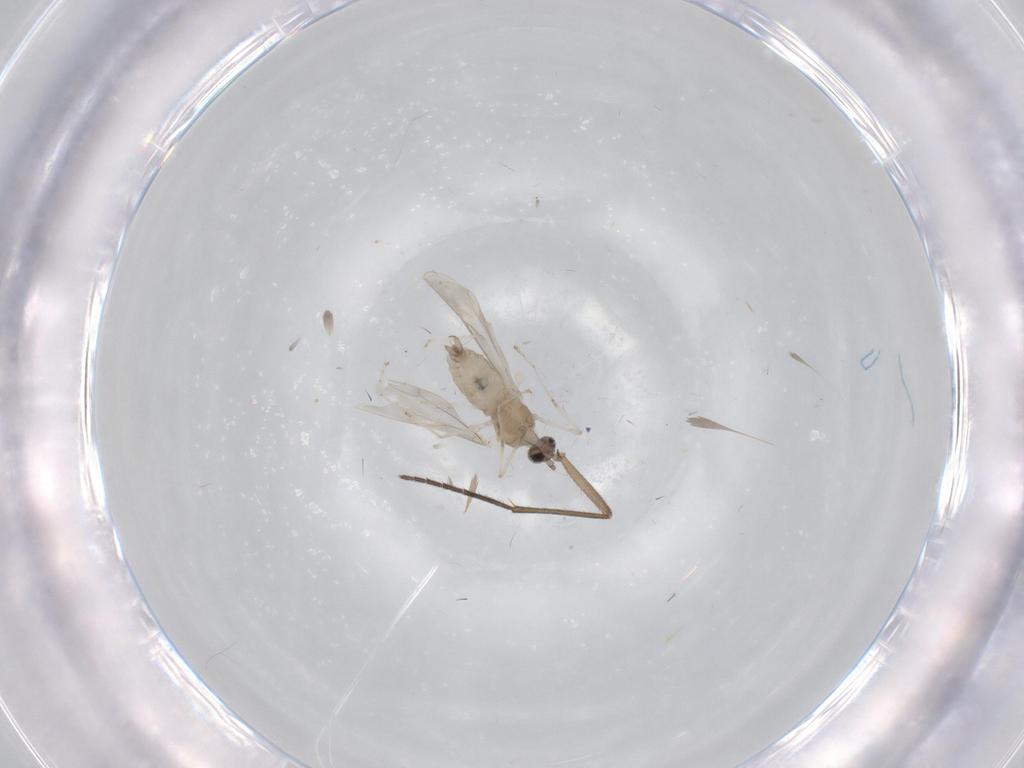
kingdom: Animalia
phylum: Arthropoda
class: Insecta
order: Diptera
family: Cecidomyiidae
